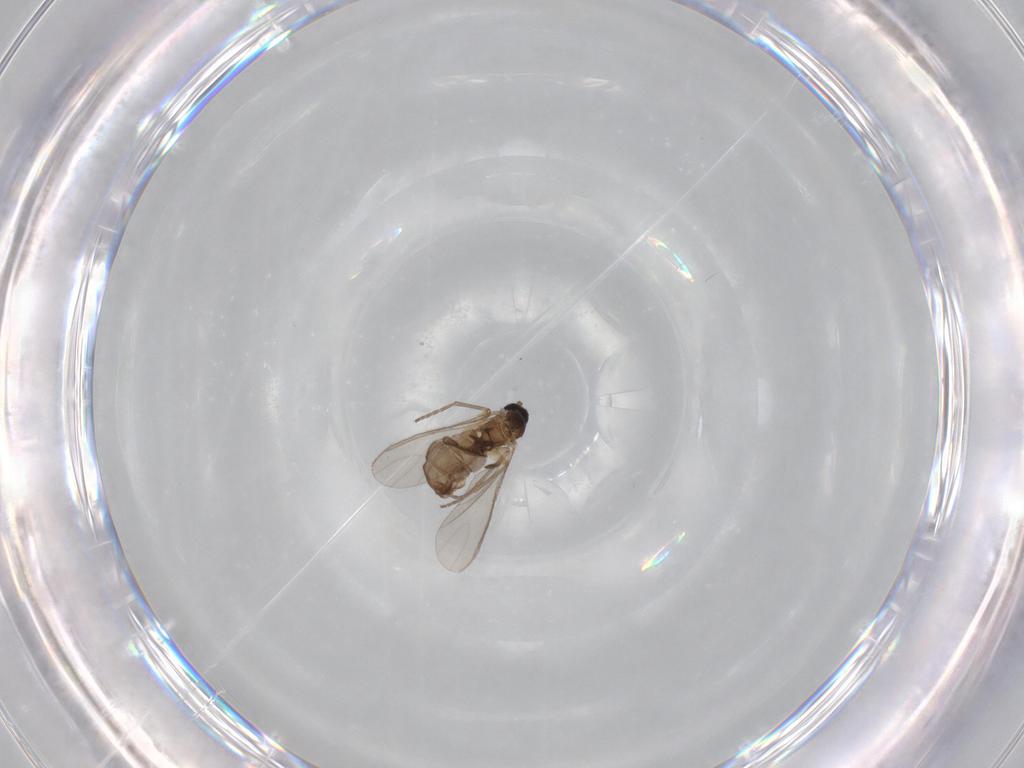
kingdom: Animalia
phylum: Arthropoda
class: Insecta
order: Diptera
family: Sciaridae
